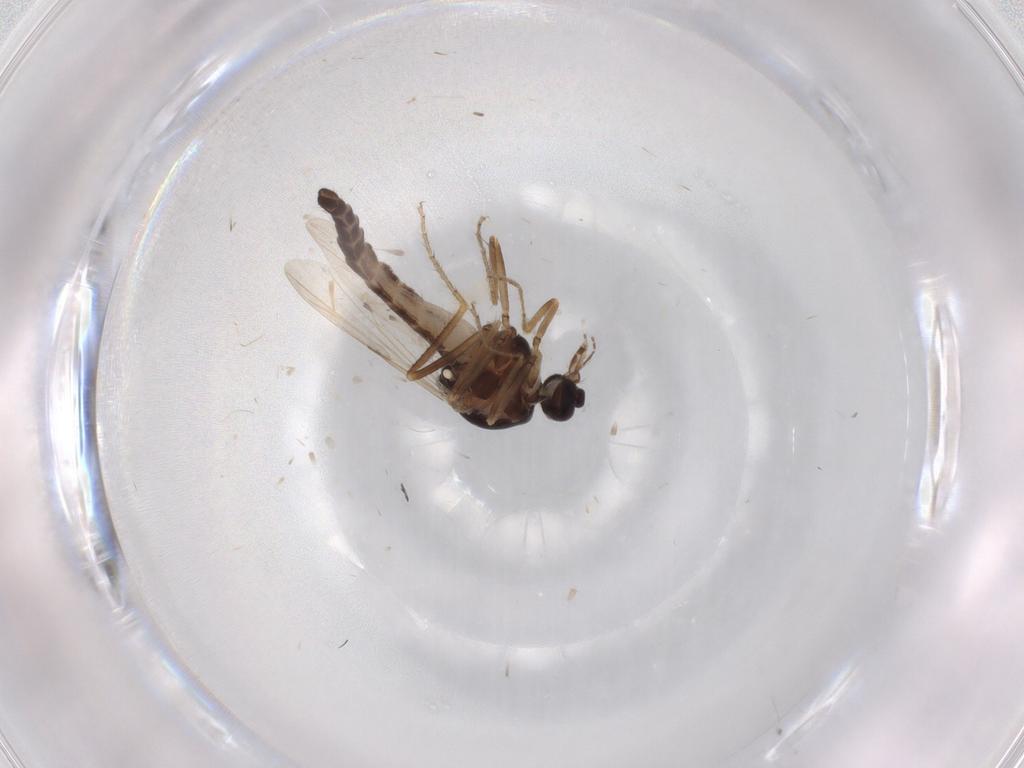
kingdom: Animalia
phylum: Arthropoda
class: Insecta
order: Diptera
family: Ceratopogonidae
